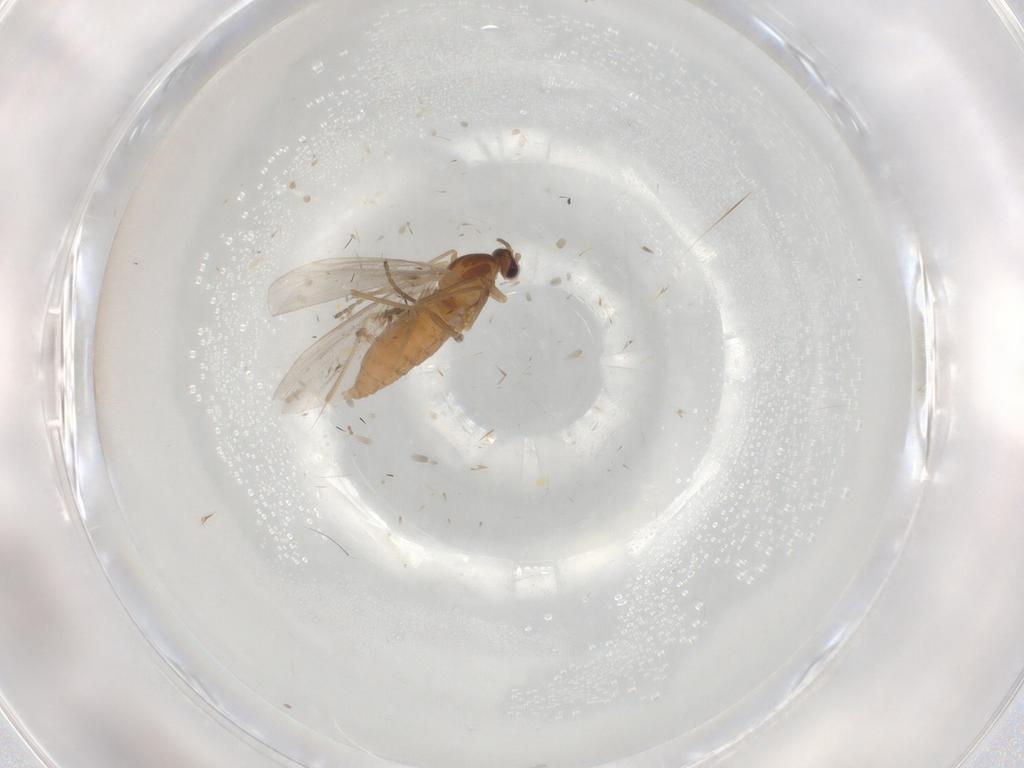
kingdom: Animalia
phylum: Arthropoda
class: Insecta
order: Diptera
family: Cecidomyiidae
